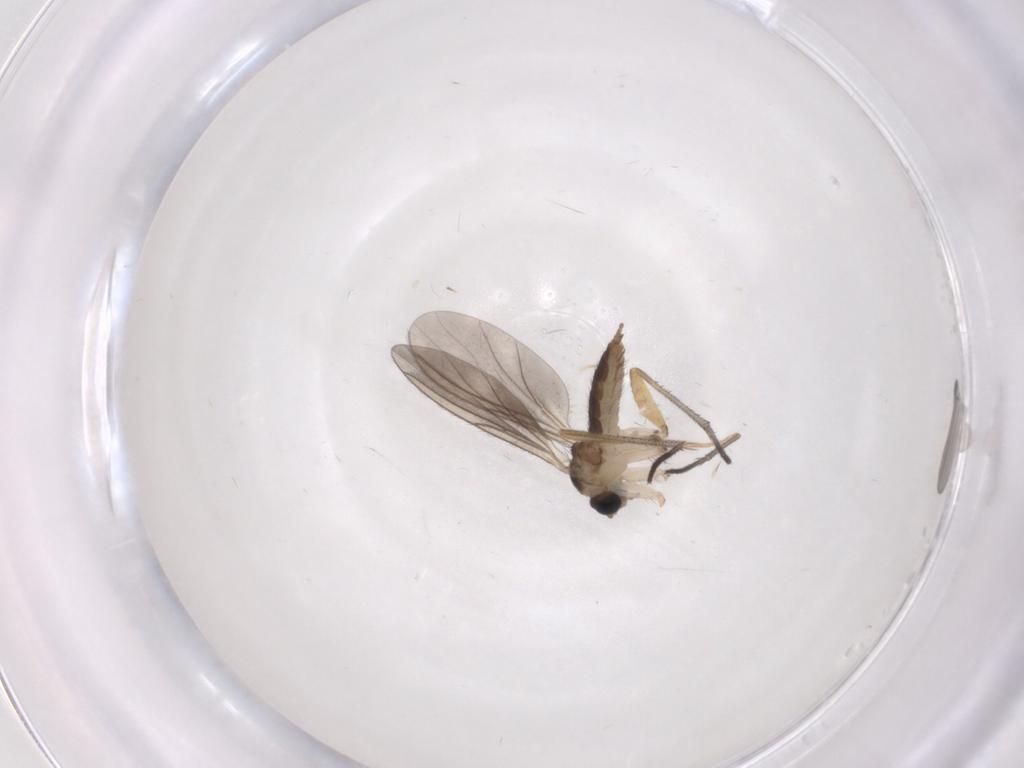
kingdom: Animalia
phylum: Arthropoda
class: Insecta
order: Diptera
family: Sciaridae
